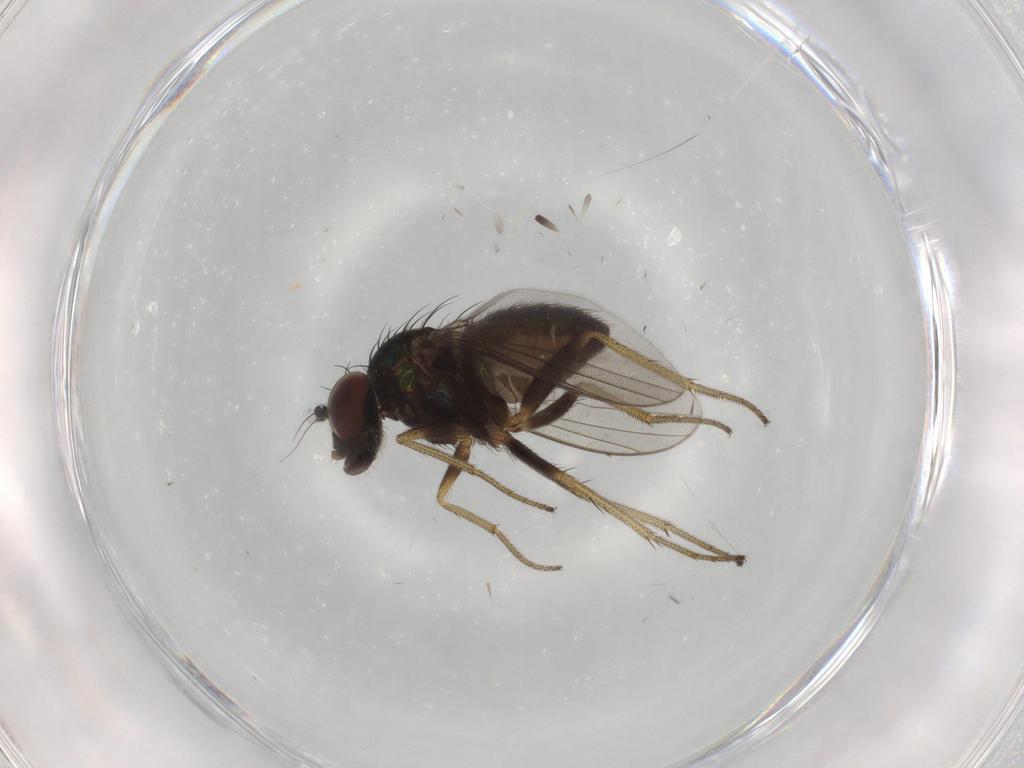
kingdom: Animalia
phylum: Arthropoda
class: Insecta
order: Diptera
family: Dolichopodidae
